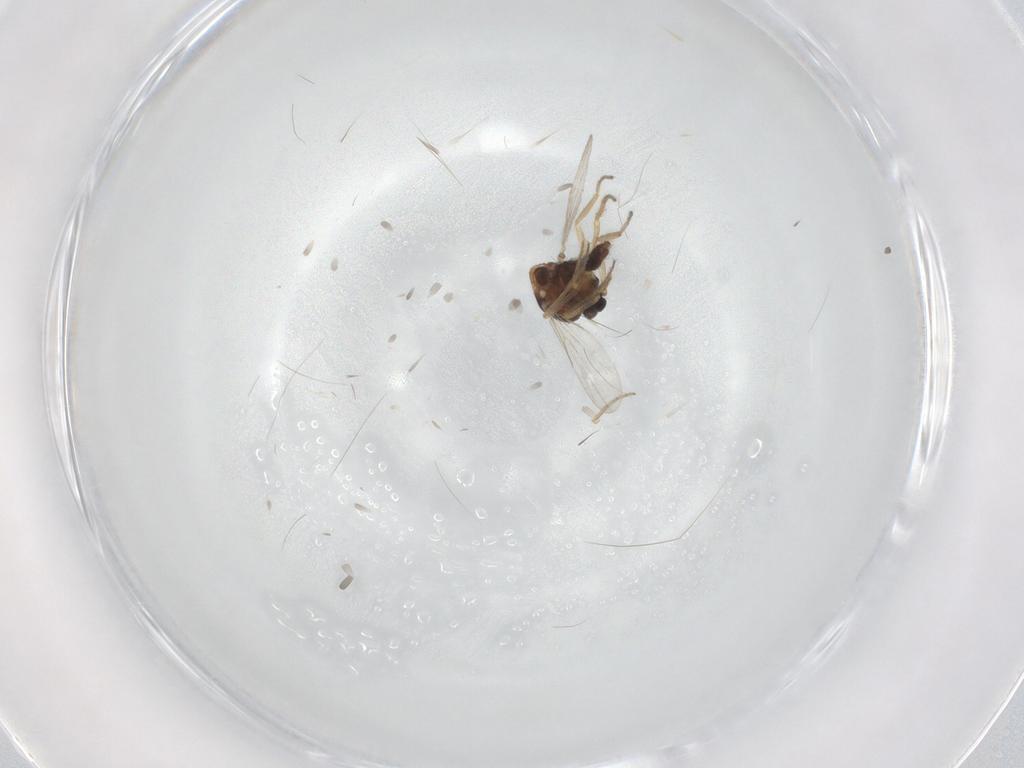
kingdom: Animalia
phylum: Arthropoda
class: Insecta
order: Diptera
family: Ceratopogonidae
